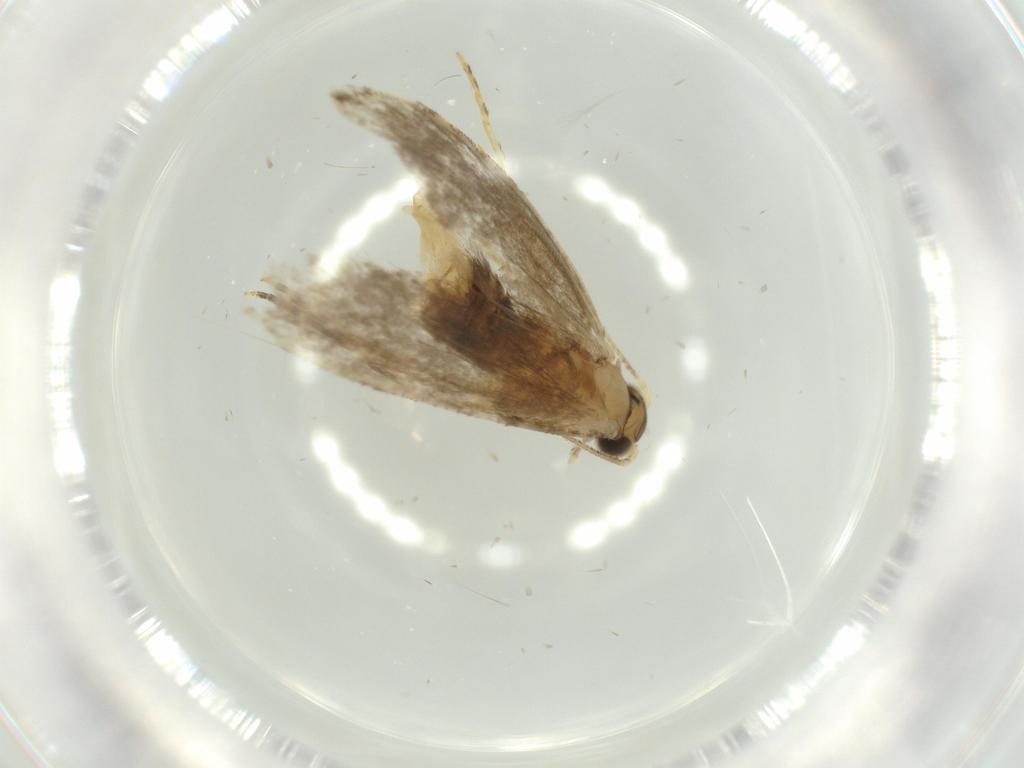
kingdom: Animalia
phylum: Arthropoda
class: Insecta
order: Lepidoptera
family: Tineidae
